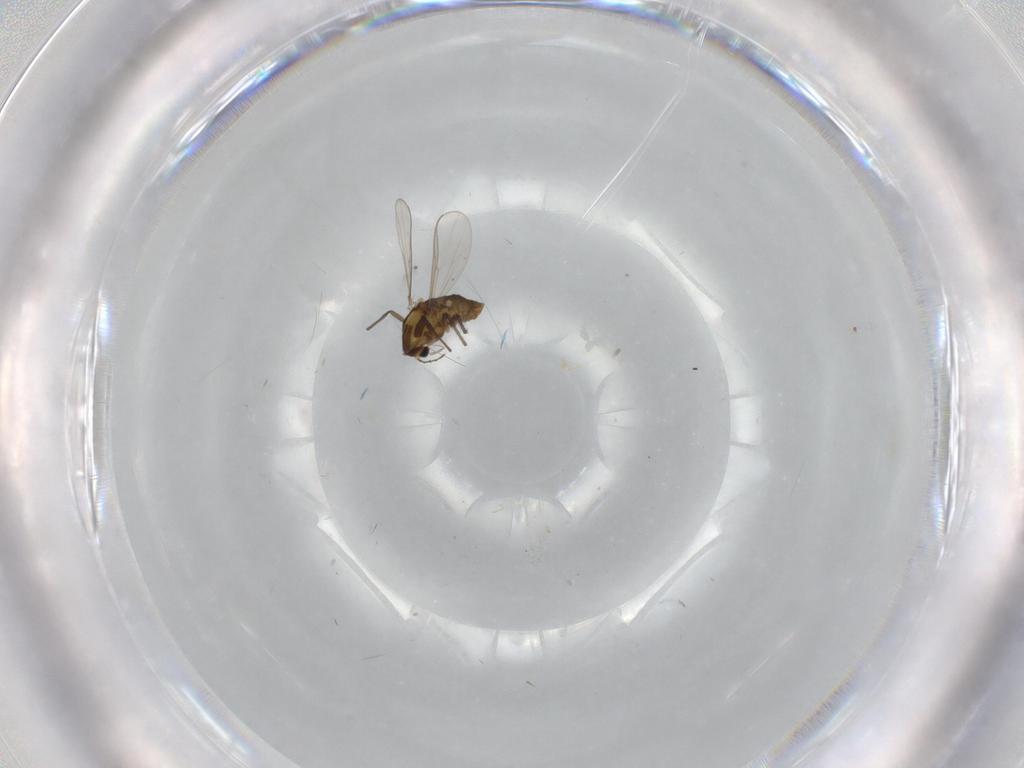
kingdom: Animalia
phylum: Arthropoda
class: Insecta
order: Diptera
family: Chironomidae
